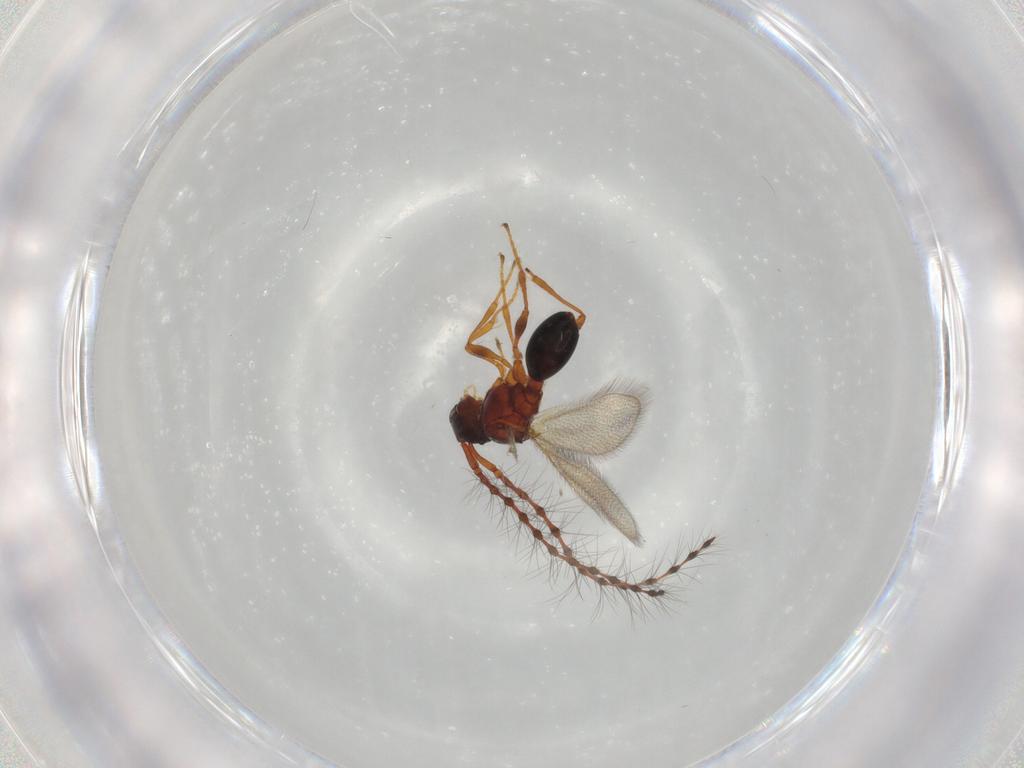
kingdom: Animalia
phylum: Arthropoda
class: Insecta
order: Hymenoptera
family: Diapriidae
